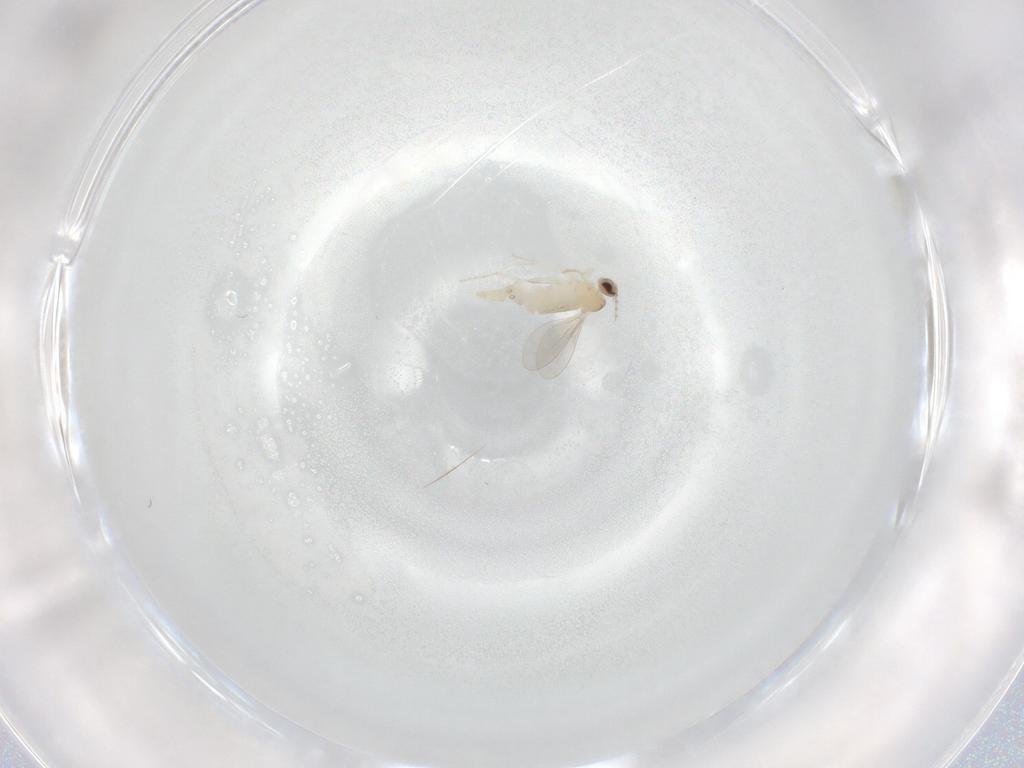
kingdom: Animalia
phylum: Arthropoda
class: Insecta
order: Diptera
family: Cecidomyiidae
